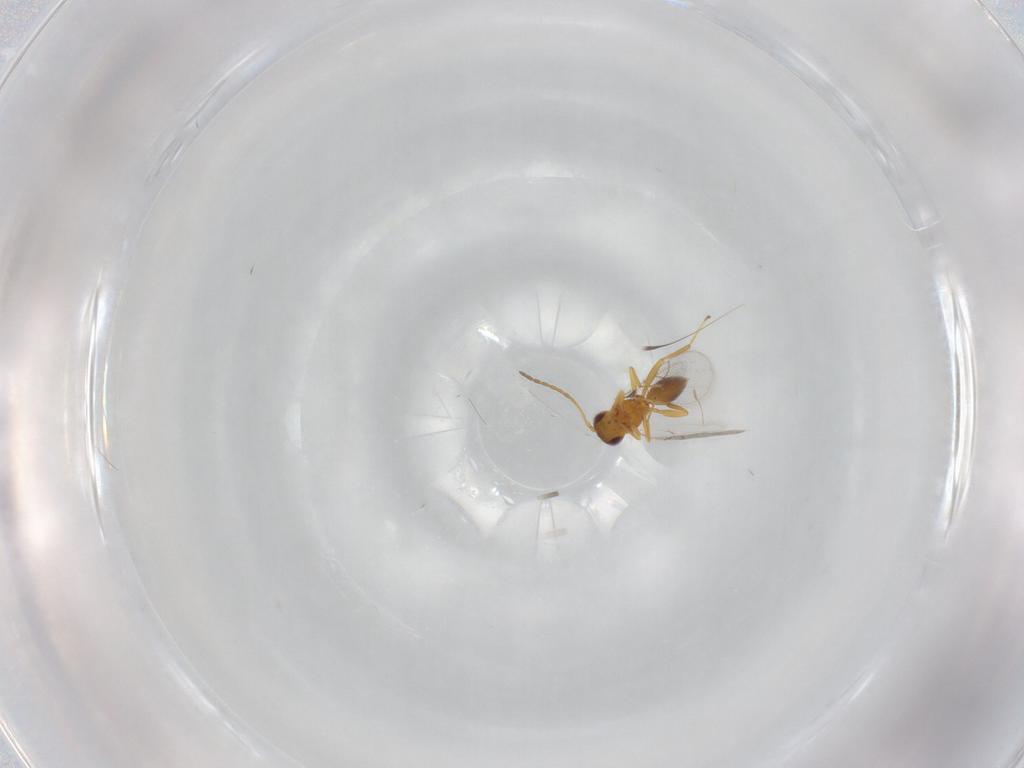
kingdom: Animalia
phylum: Arthropoda
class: Insecta
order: Hymenoptera
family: Figitidae
